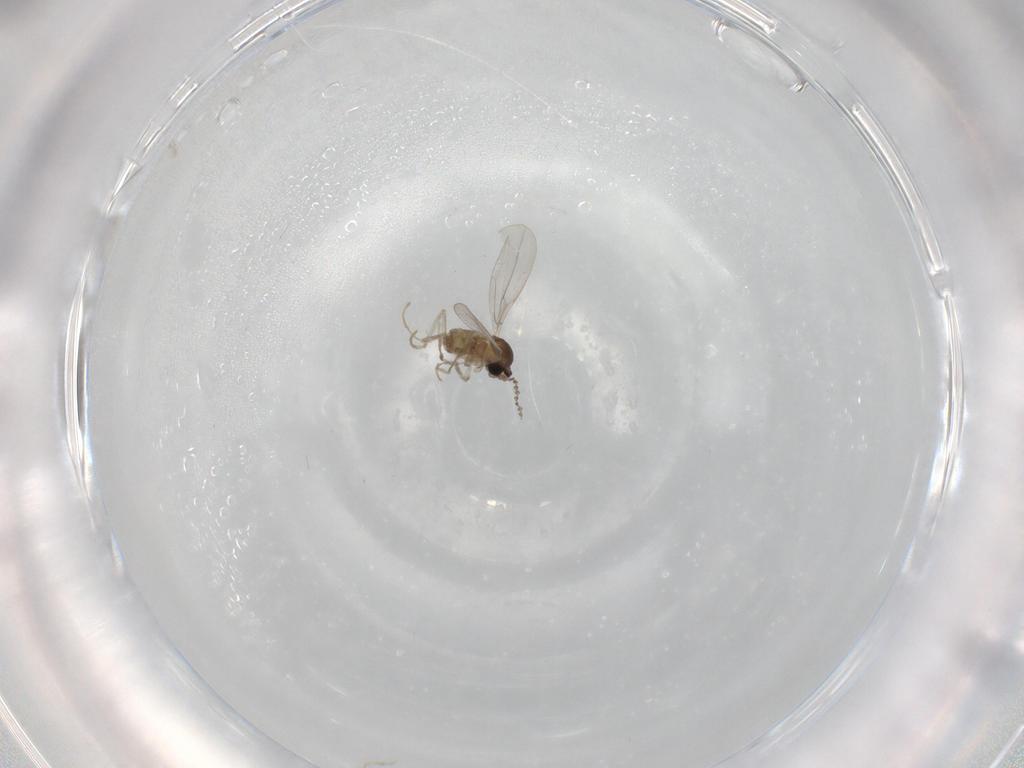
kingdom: Animalia
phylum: Arthropoda
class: Insecta
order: Diptera
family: Cecidomyiidae
